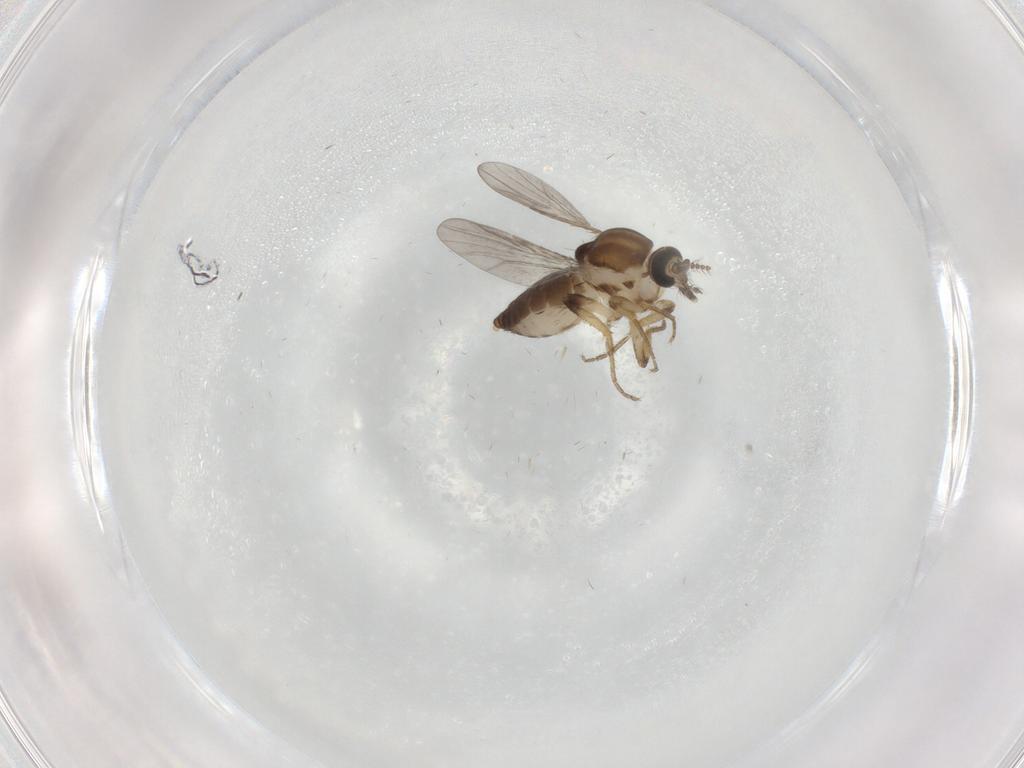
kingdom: Animalia
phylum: Arthropoda
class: Insecta
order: Diptera
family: Ceratopogonidae
